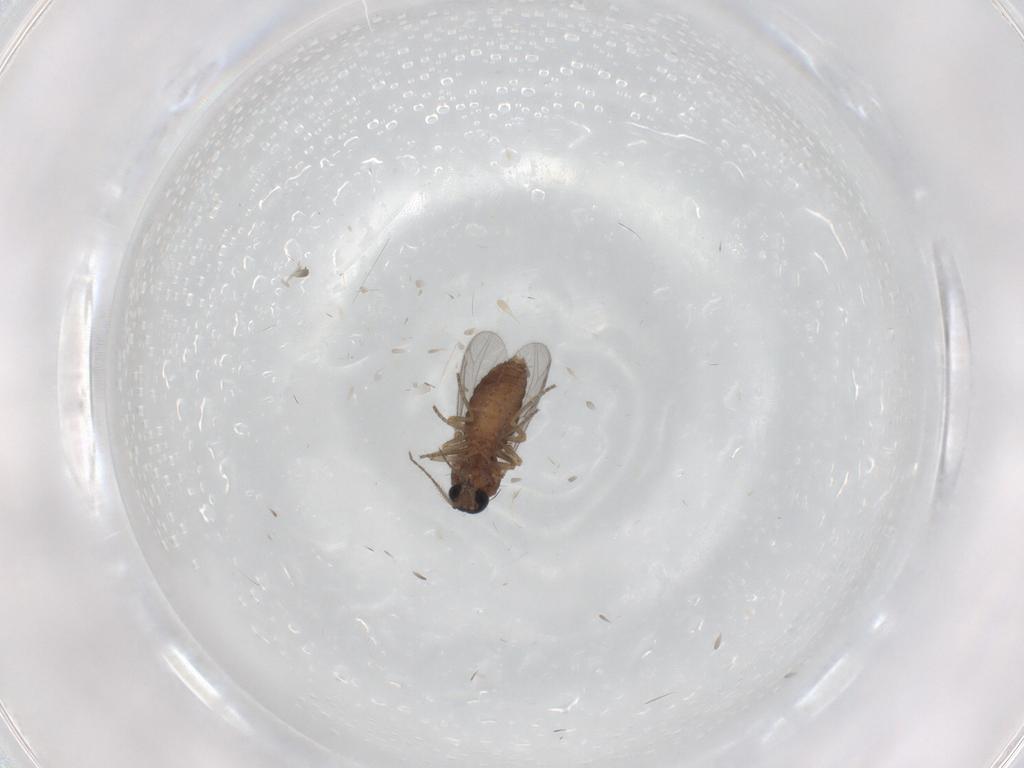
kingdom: Animalia
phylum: Arthropoda
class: Insecta
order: Diptera
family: Ceratopogonidae
